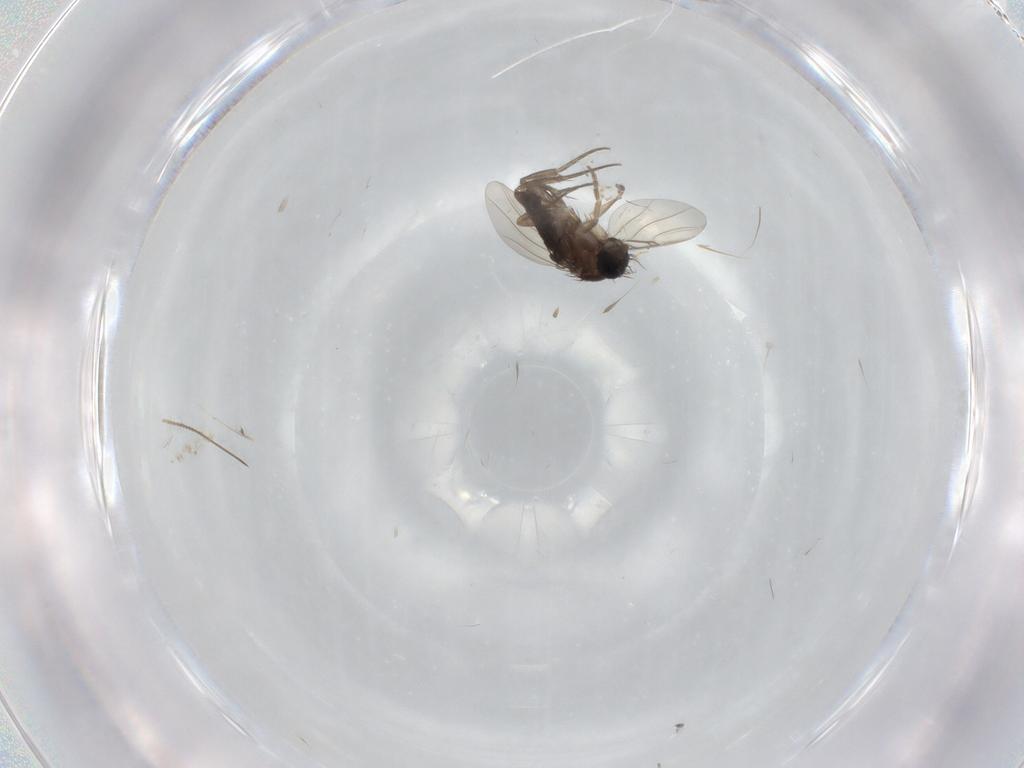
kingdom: Animalia
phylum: Arthropoda
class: Insecta
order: Diptera
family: Phoridae
